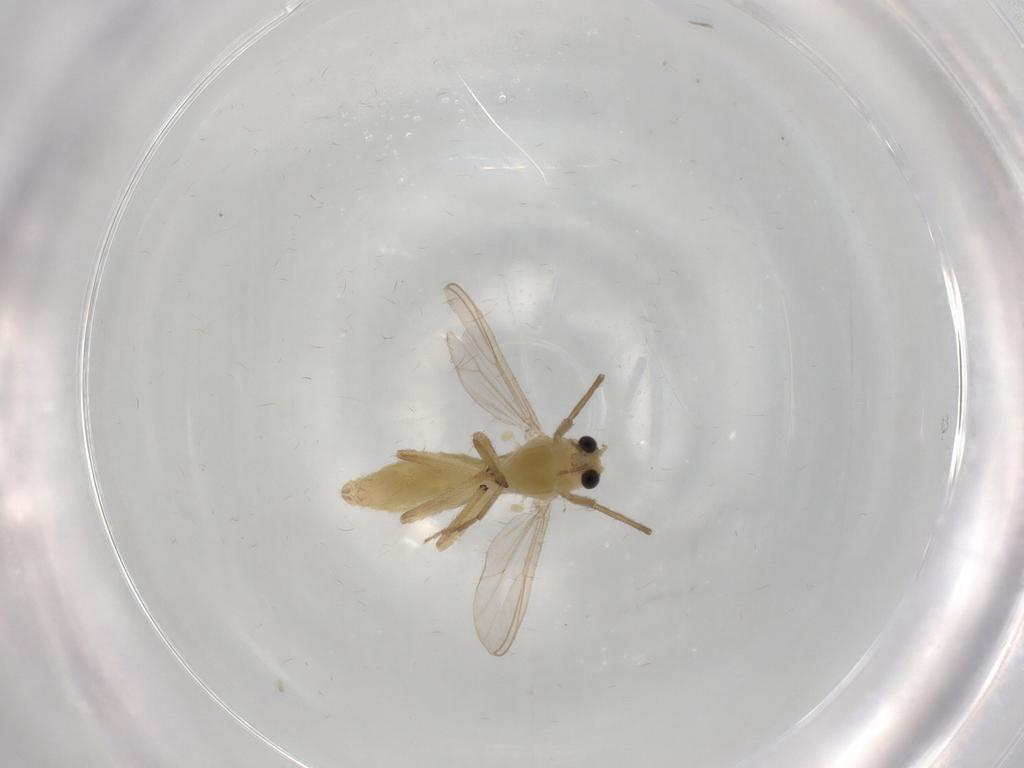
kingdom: Animalia
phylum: Arthropoda
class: Insecta
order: Diptera
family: Chironomidae
